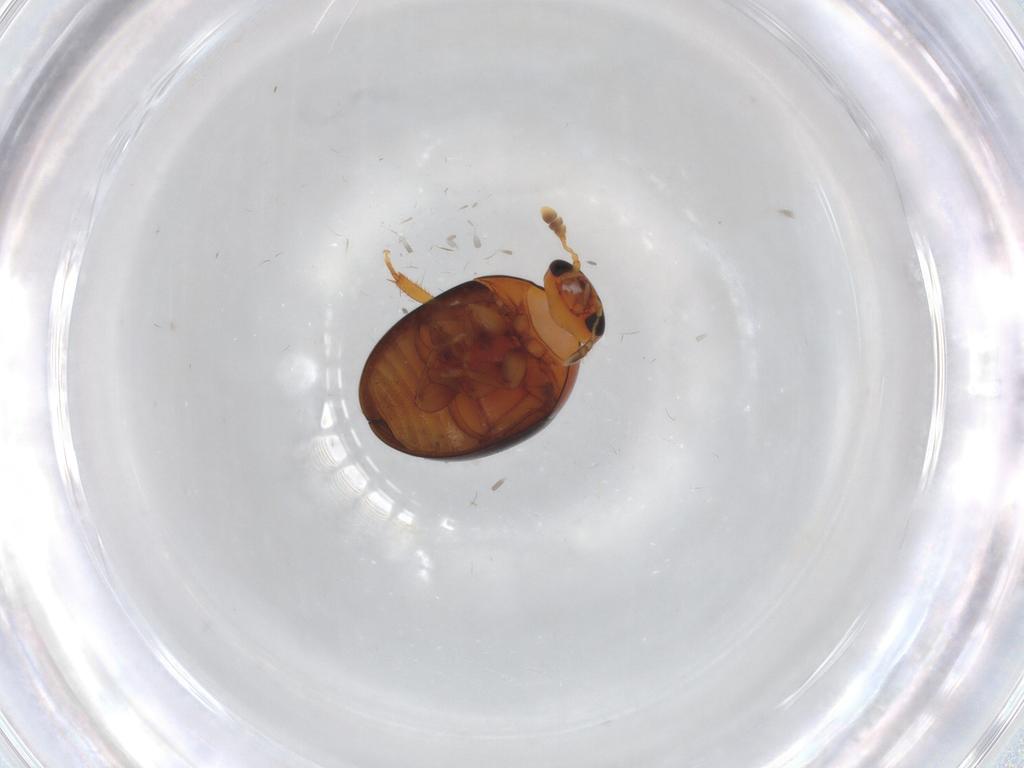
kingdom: Animalia
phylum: Arthropoda
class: Insecta
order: Coleoptera
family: Phalacridae
